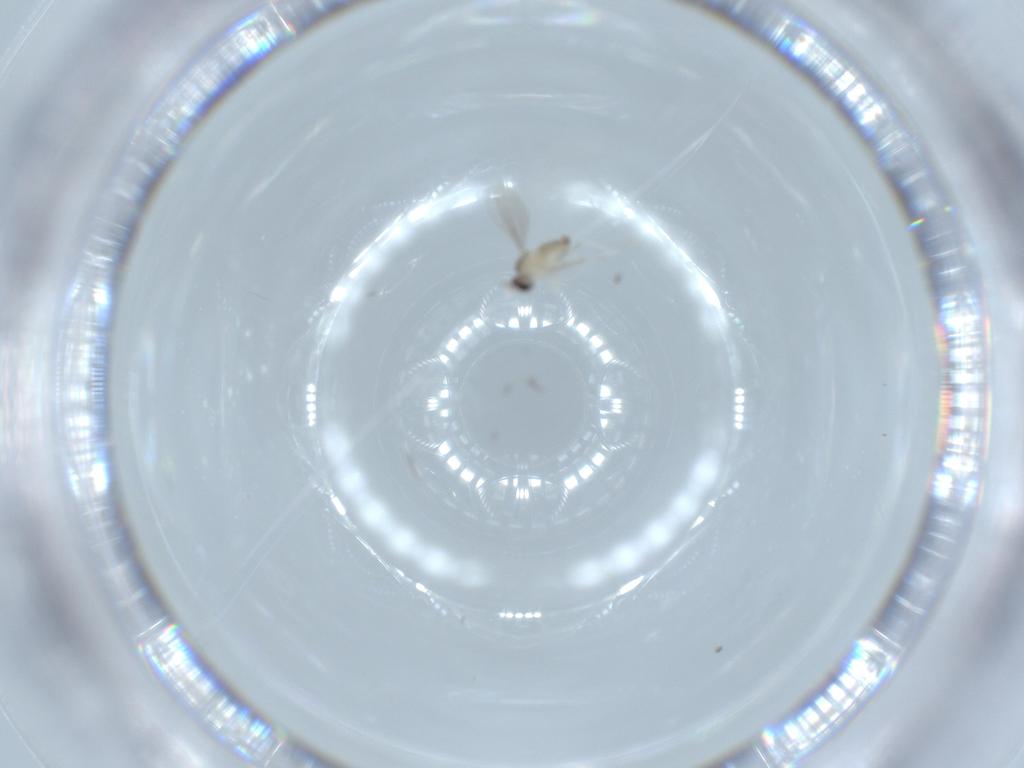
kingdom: Animalia
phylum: Arthropoda
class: Insecta
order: Diptera
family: Cecidomyiidae
